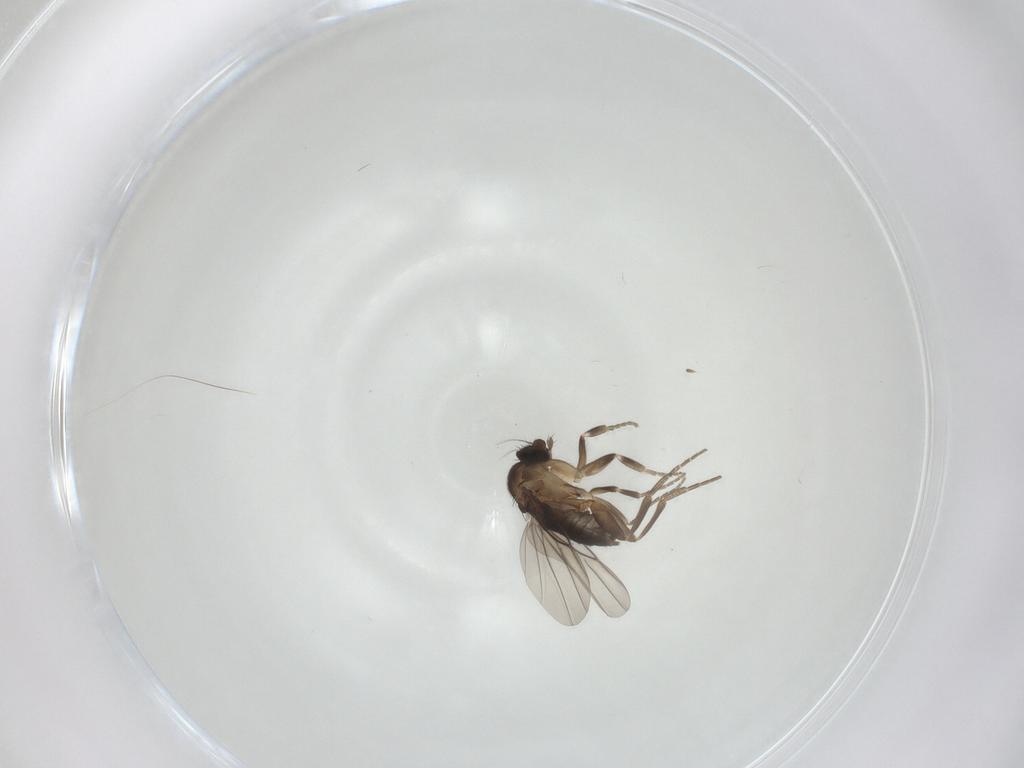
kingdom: Animalia
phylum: Arthropoda
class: Insecta
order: Diptera
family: Phoridae
